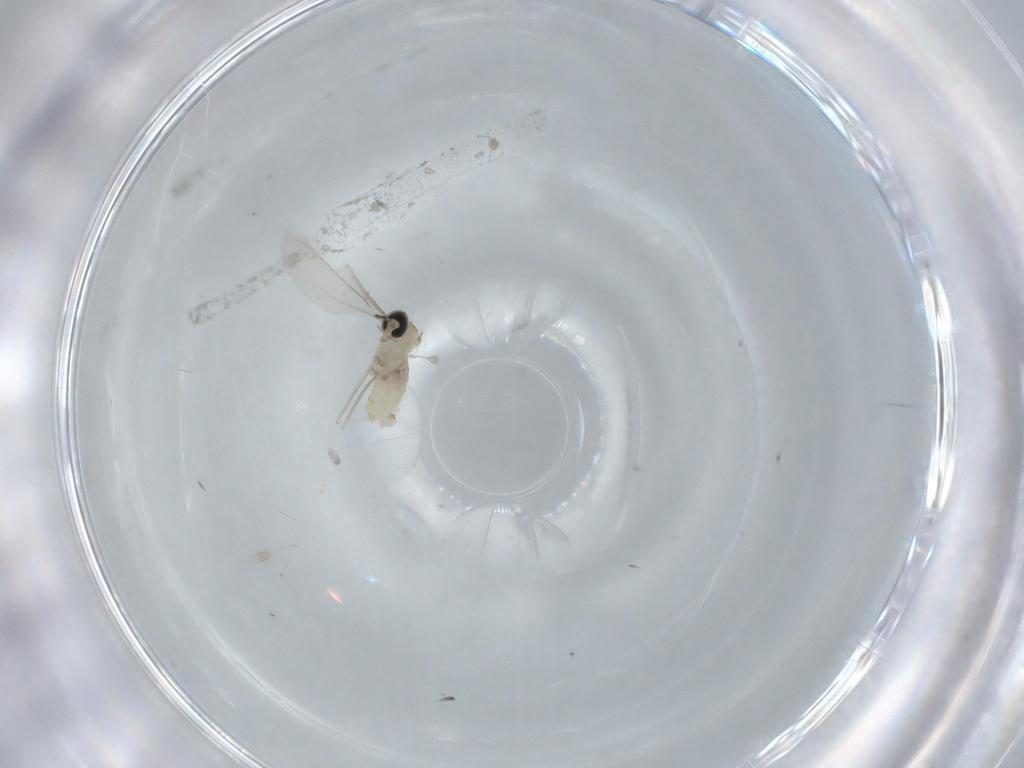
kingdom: Animalia
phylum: Arthropoda
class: Insecta
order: Diptera
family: Cecidomyiidae
